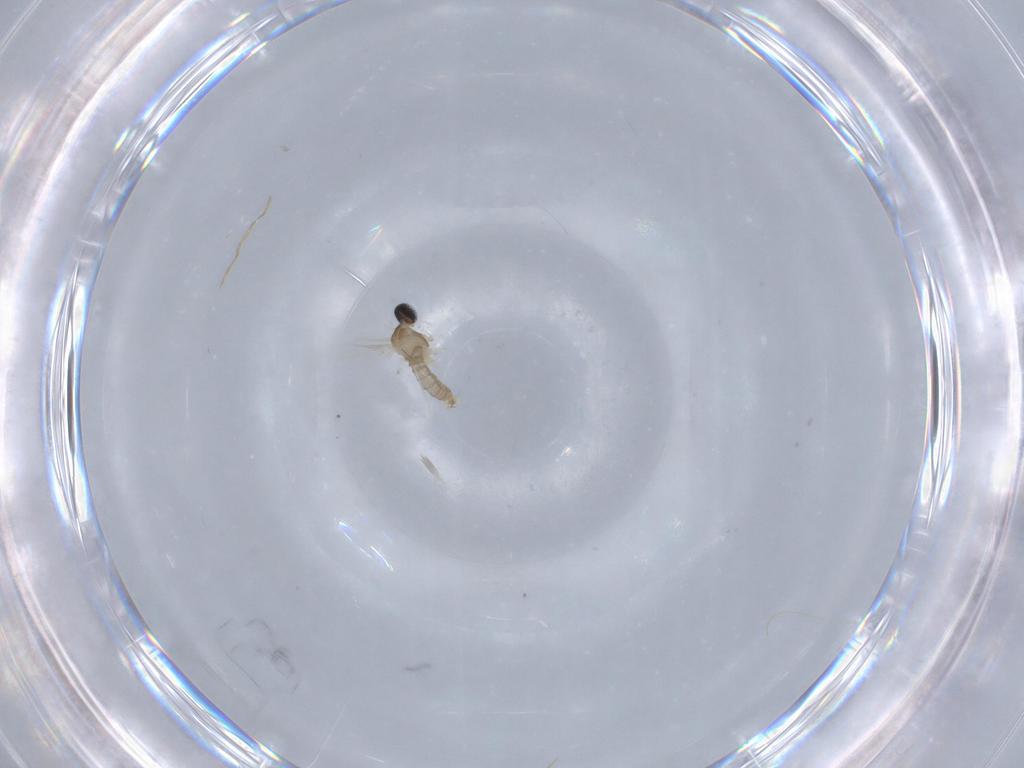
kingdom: Animalia
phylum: Arthropoda
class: Insecta
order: Diptera
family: Cecidomyiidae
